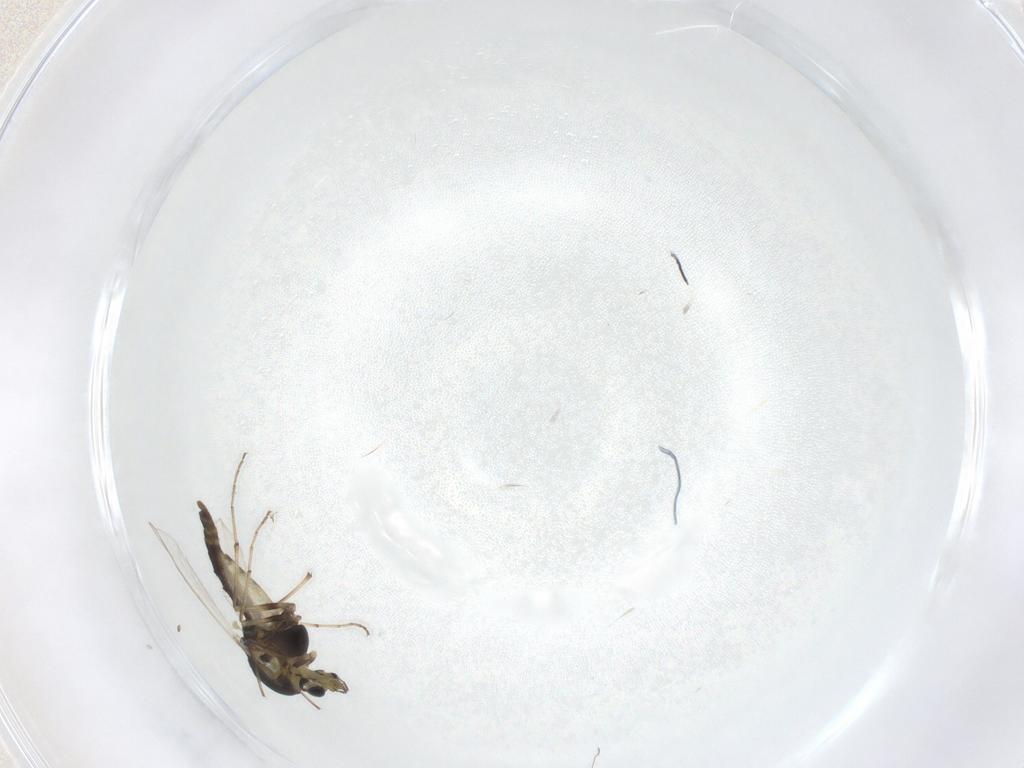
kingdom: Animalia
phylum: Arthropoda
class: Insecta
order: Diptera
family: Chironomidae
